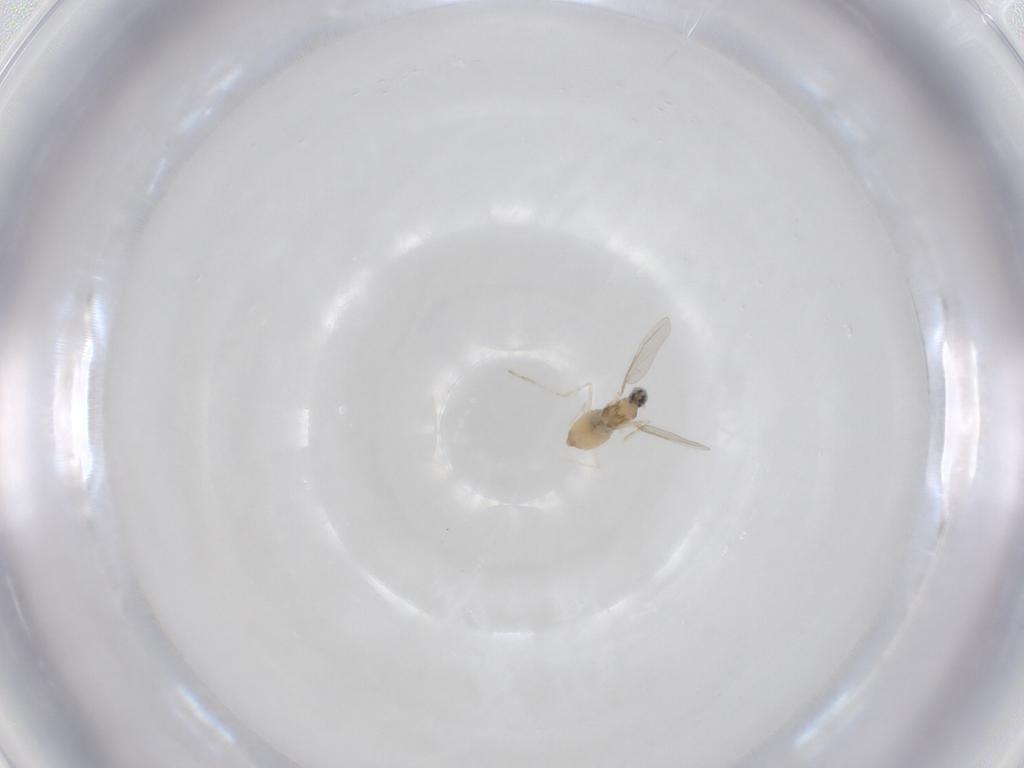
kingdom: Animalia
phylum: Arthropoda
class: Insecta
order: Diptera
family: Cecidomyiidae
